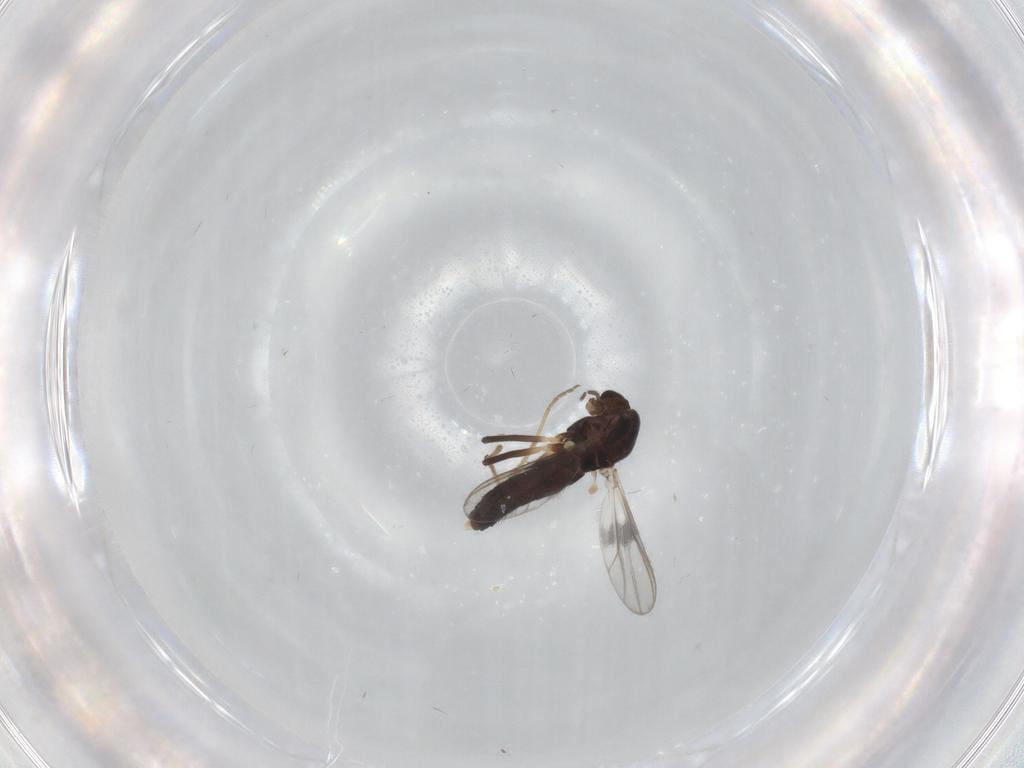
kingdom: Animalia
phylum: Arthropoda
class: Insecta
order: Diptera
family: Chironomidae
